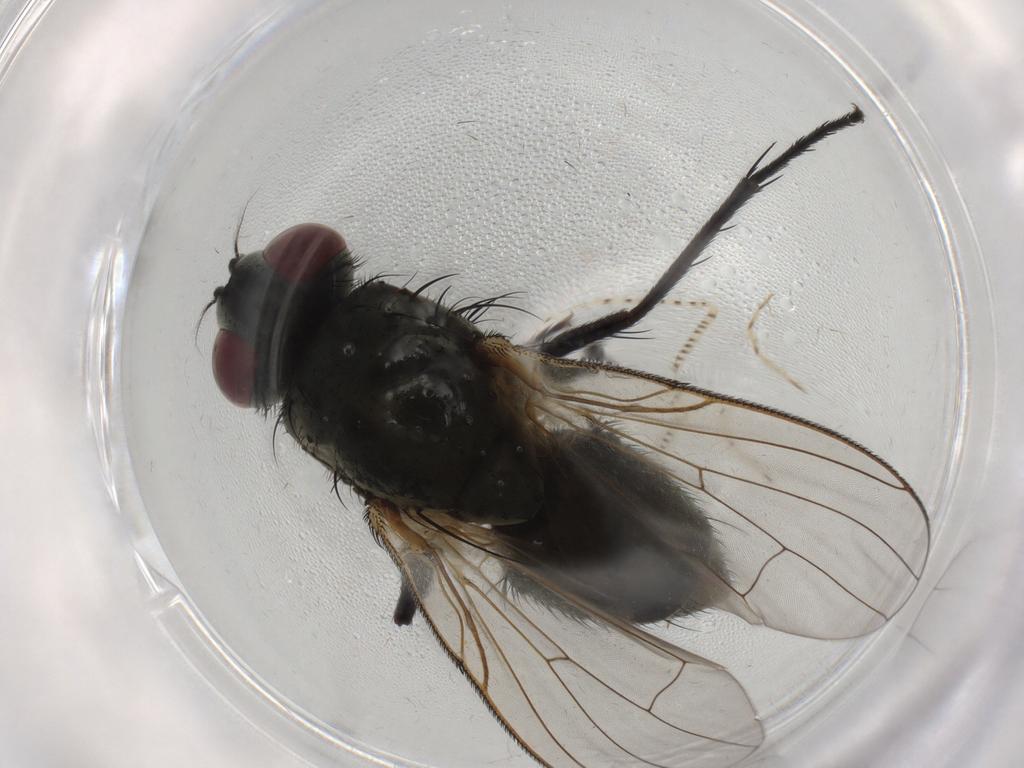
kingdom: Animalia
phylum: Arthropoda
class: Insecta
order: Diptera
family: Muscidae
